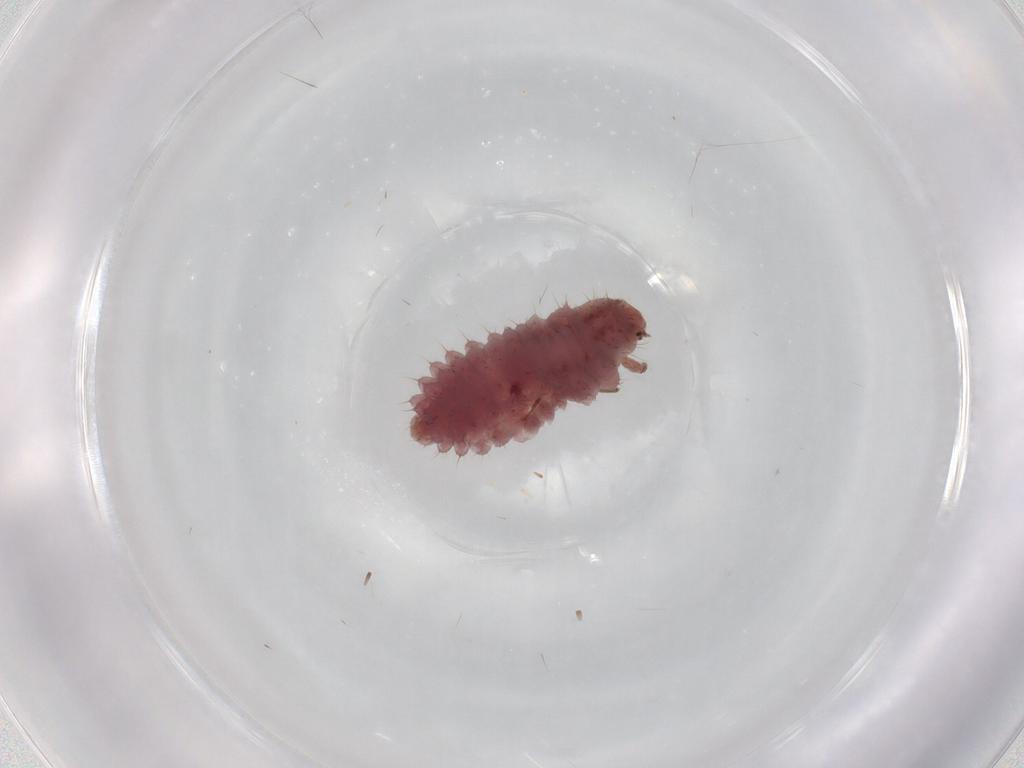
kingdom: Animalia
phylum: Arthropoda
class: Insecta
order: Coleoptera
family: Coccinellidae
